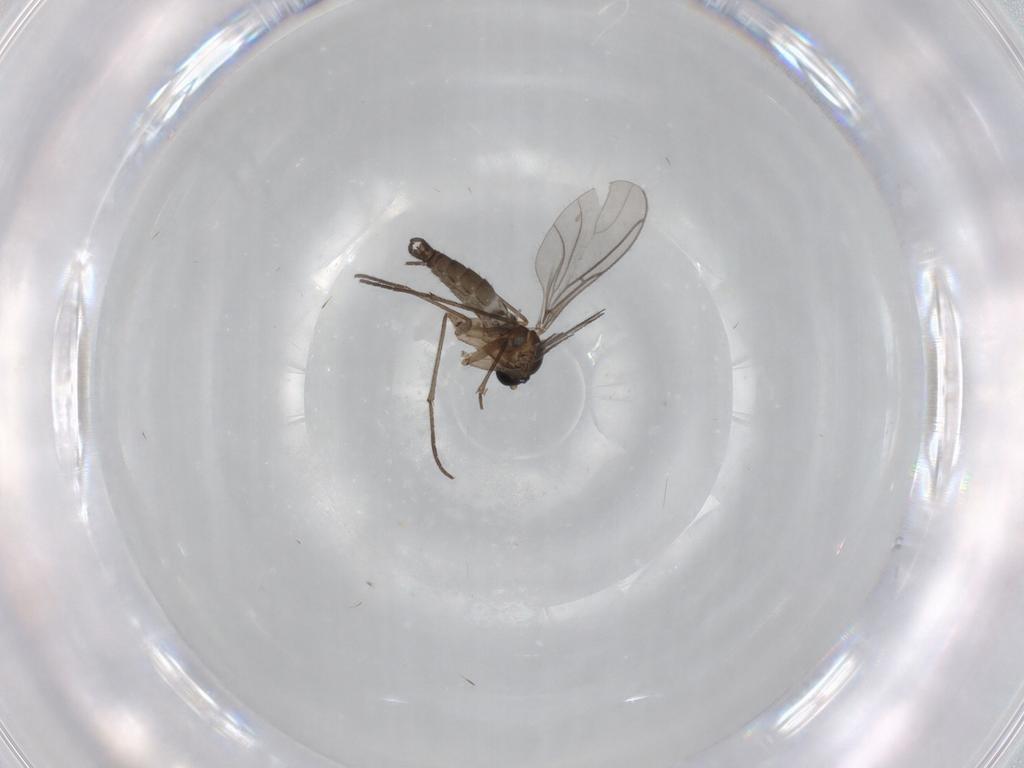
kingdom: Animalia
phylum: Arthropoda
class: Insecta
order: Diptera
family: Sciaridae
